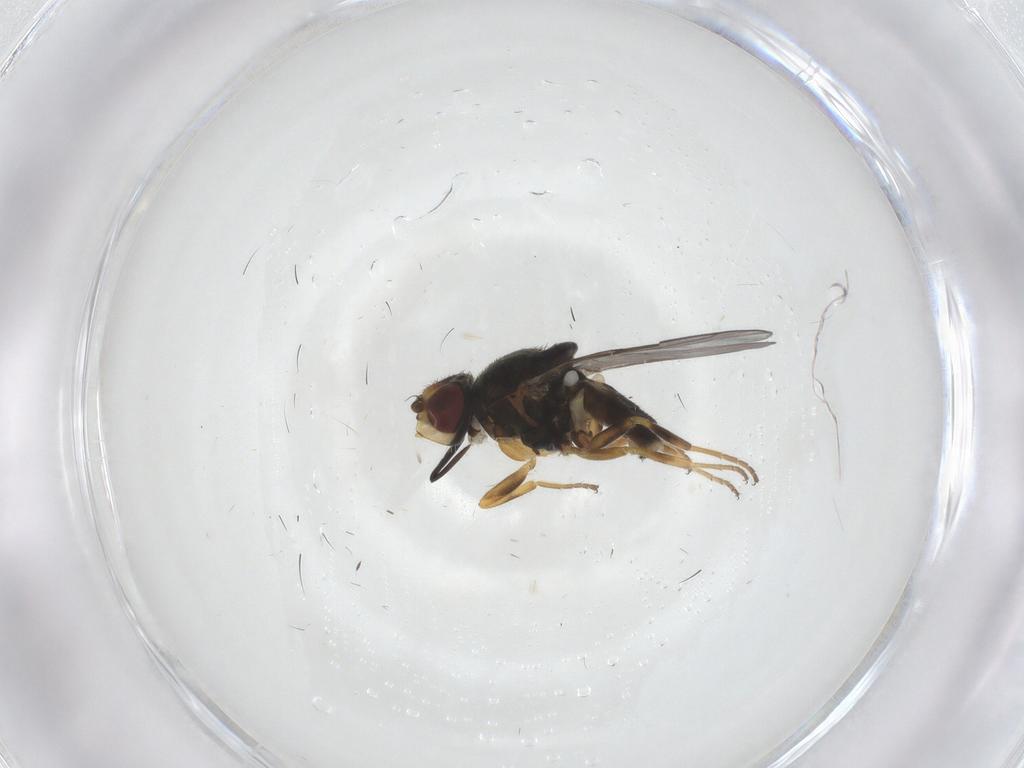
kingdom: Animalia
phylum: Arthropoda
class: Insecta
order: Diptera
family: Chloropidae
